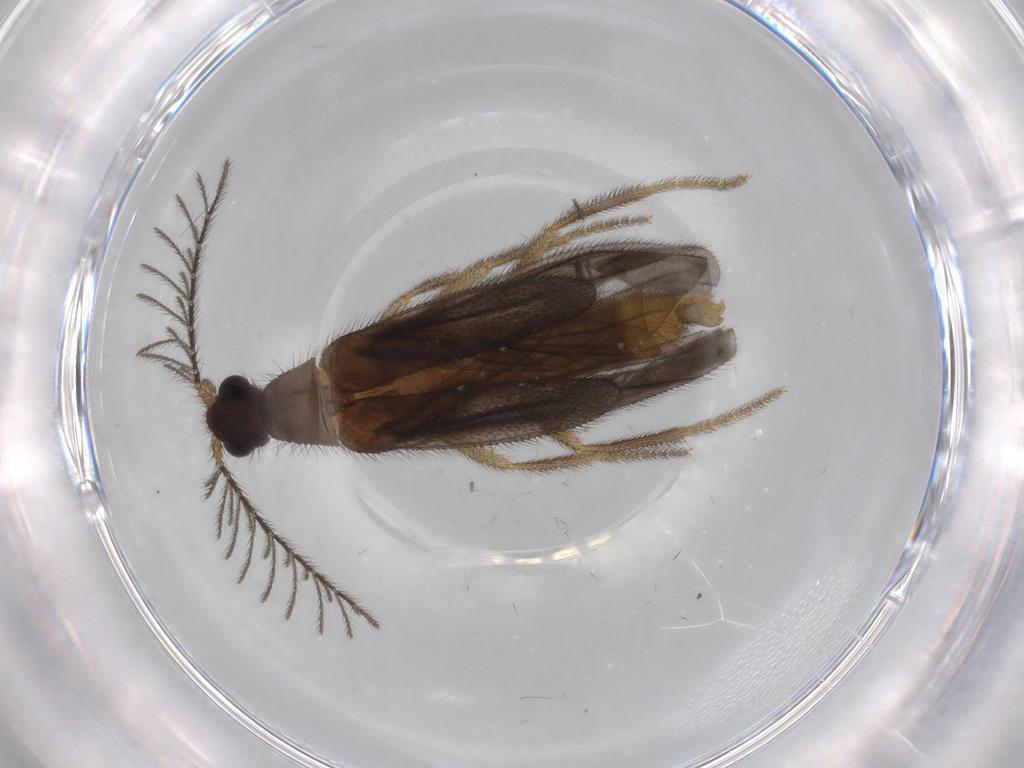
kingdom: Animalia
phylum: Arthropoda
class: Insecta
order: Coleoptera
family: Phengodidae
